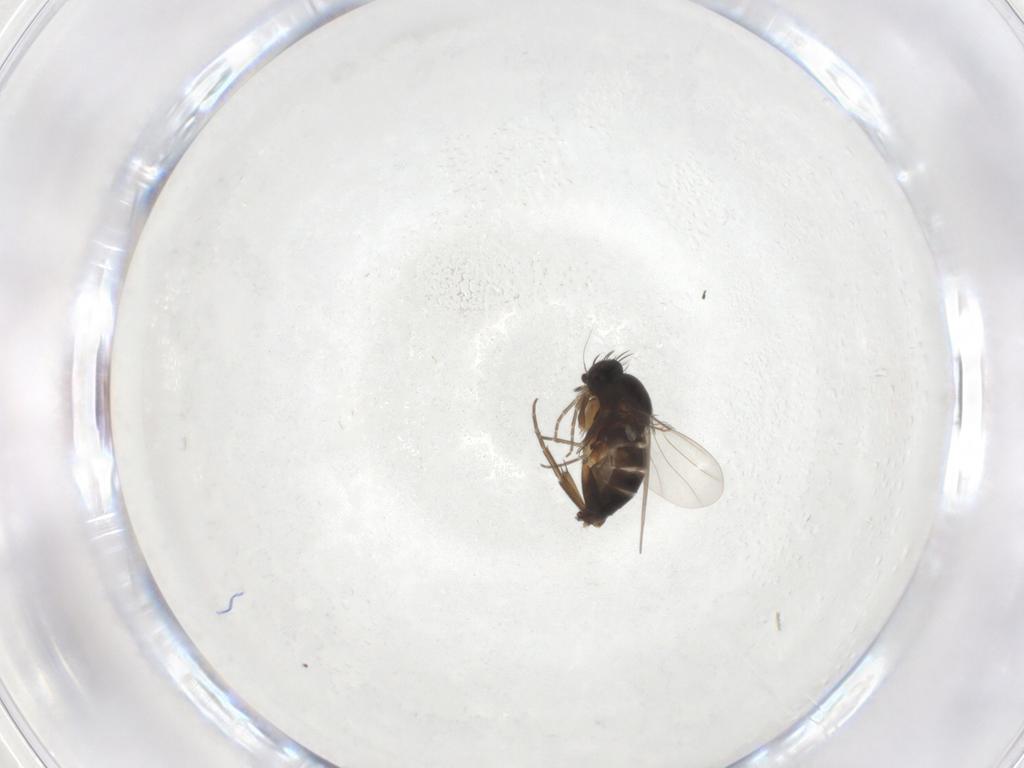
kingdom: Animalia
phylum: Arthropoda
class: Insecta
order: Diptera
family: Phoridae
